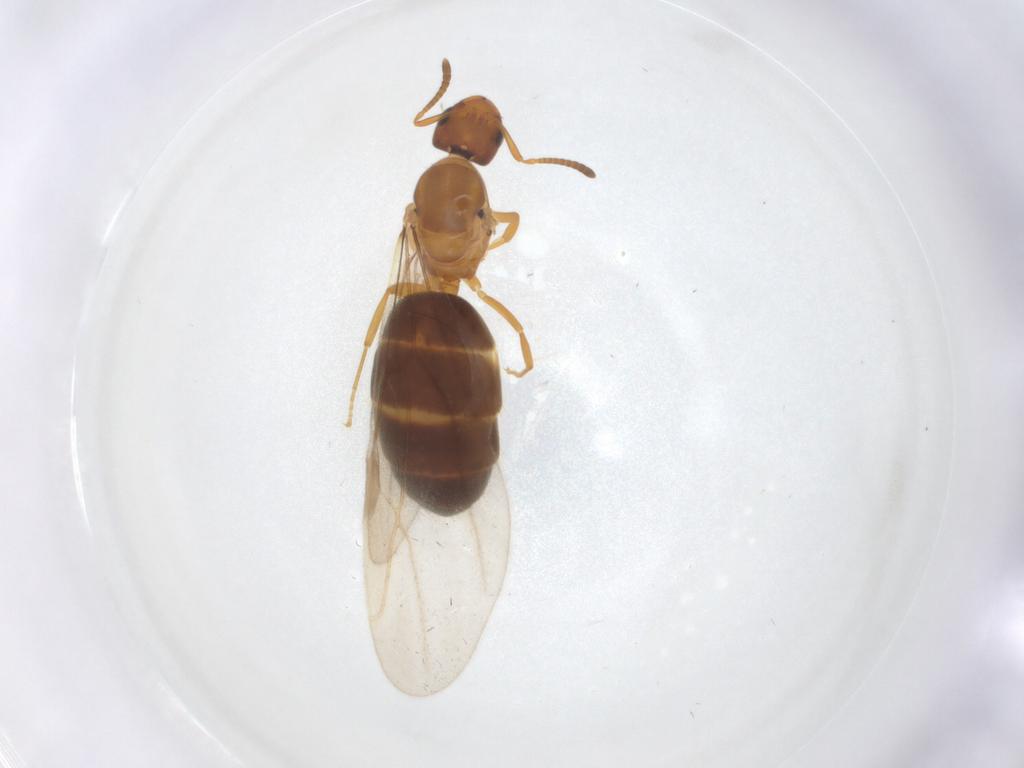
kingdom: Animalia
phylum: Arthropoda
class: Insecta
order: Hymenoptera
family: Formicidae
